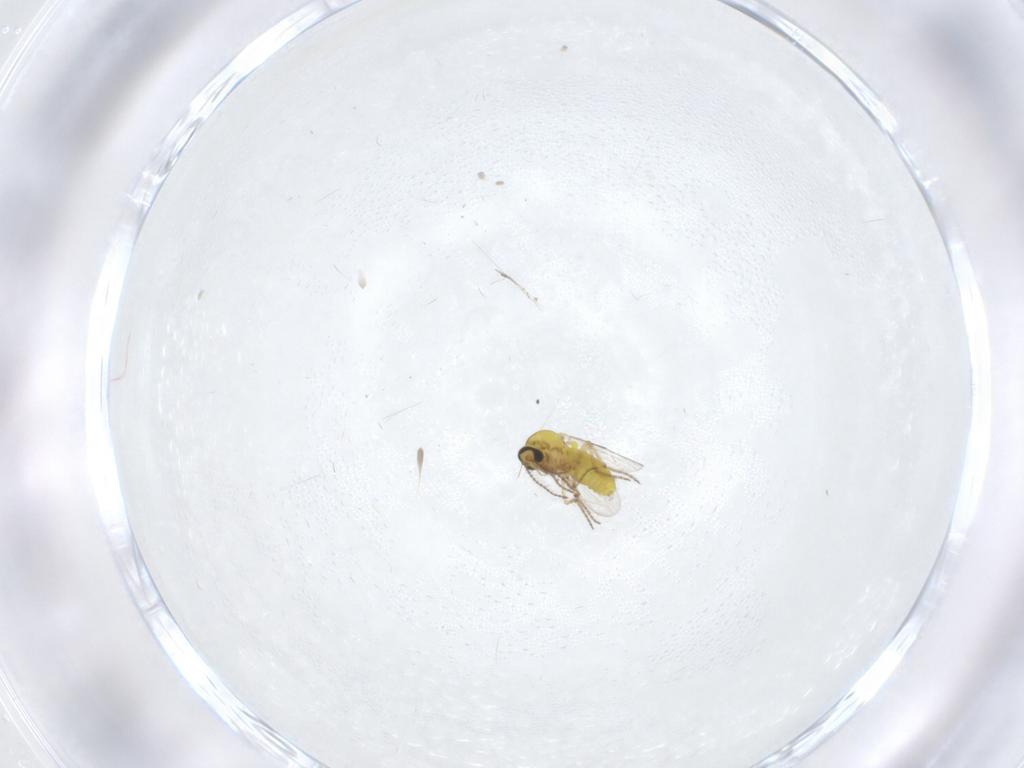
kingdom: Animalia
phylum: Arthropoda
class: Insecta
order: Diptera
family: Ceratopogonidae
